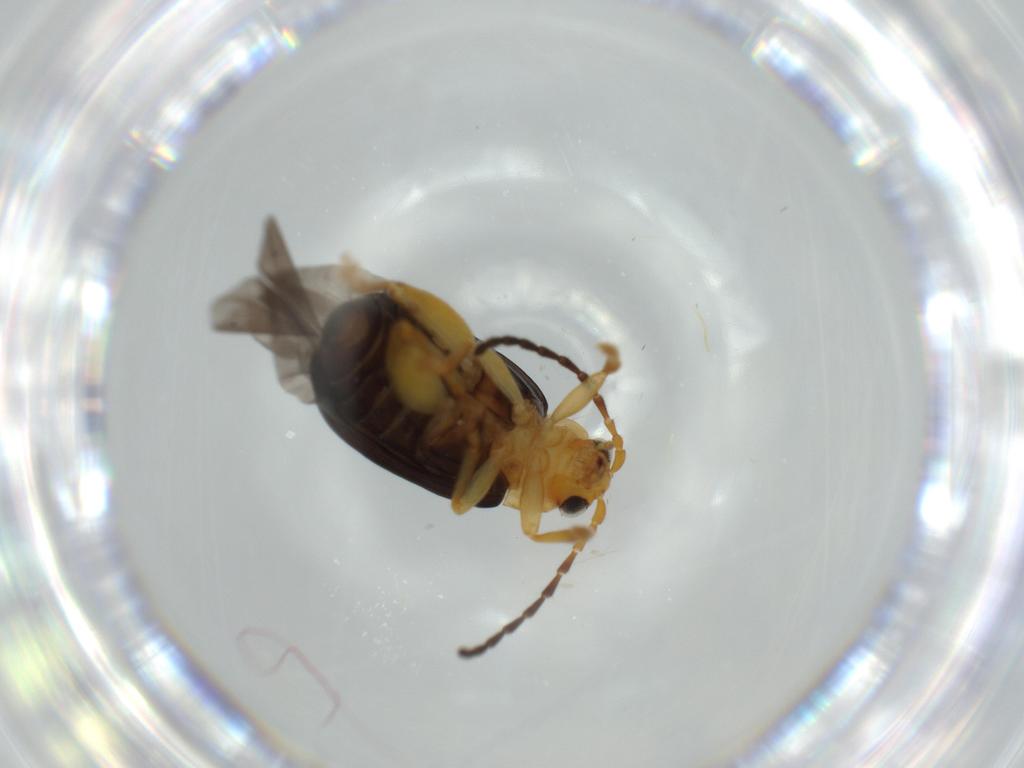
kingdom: Animalia
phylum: Arthropoda
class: Insecta
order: Coleoptera
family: Chrysomelidae
